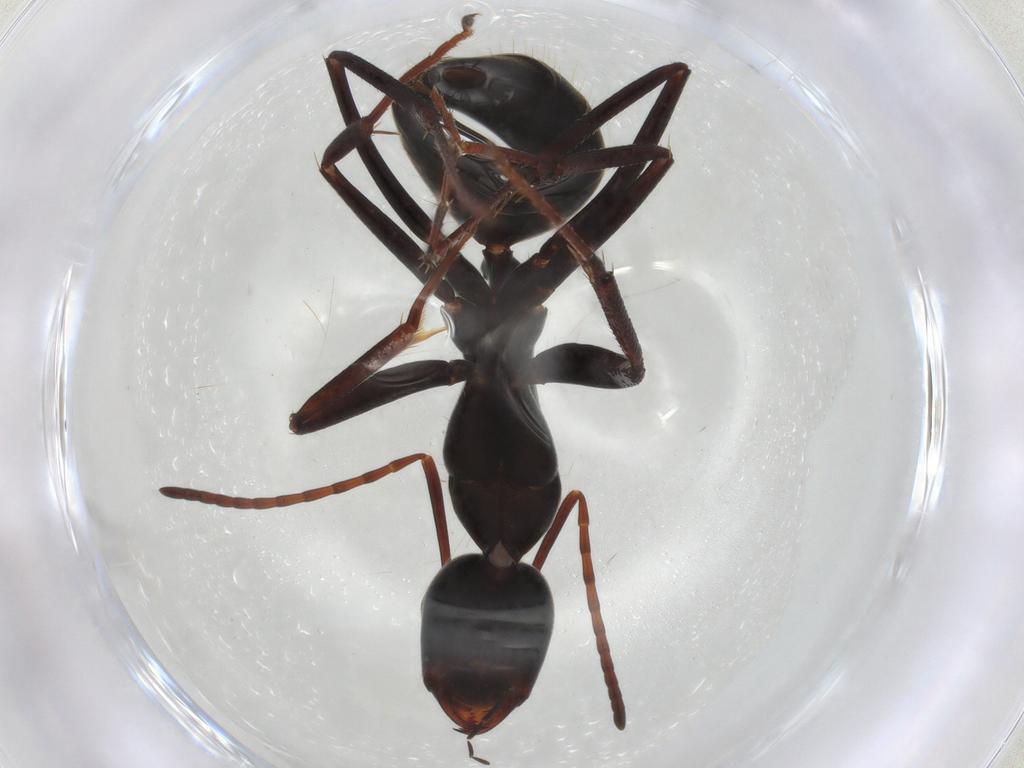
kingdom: Animalia
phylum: Arthropoda
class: Insecta
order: Hymenoptera
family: Formicidae
